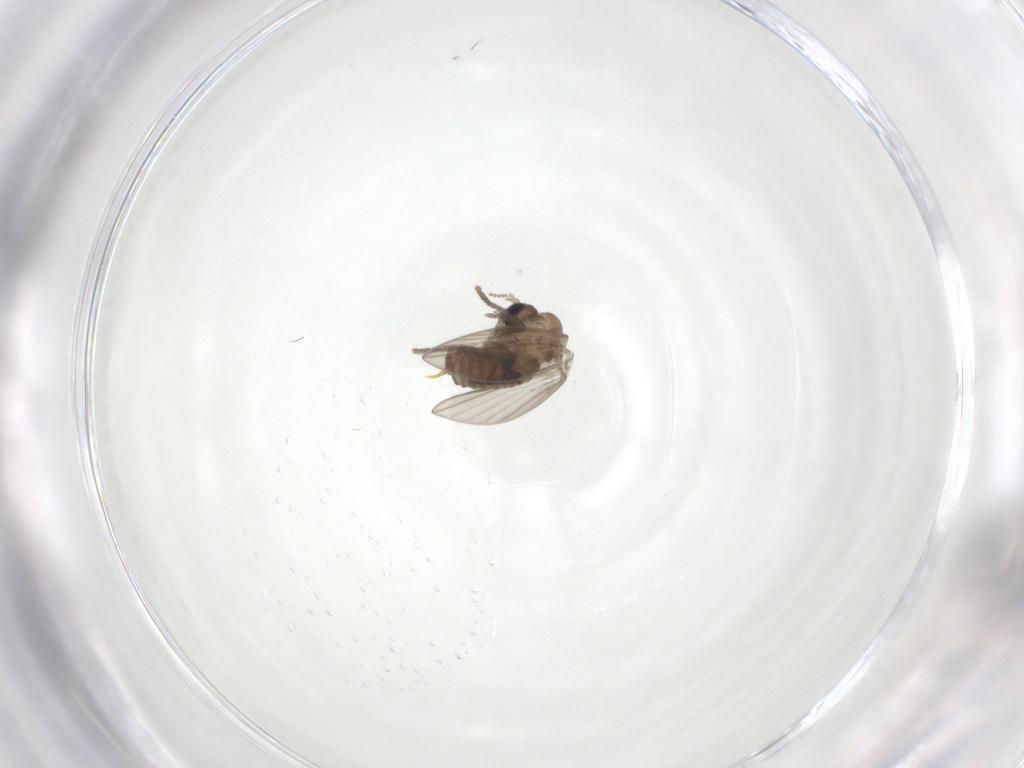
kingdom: Animalia
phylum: Arthropoda
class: Insecta
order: Diptera
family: Psychodidae
